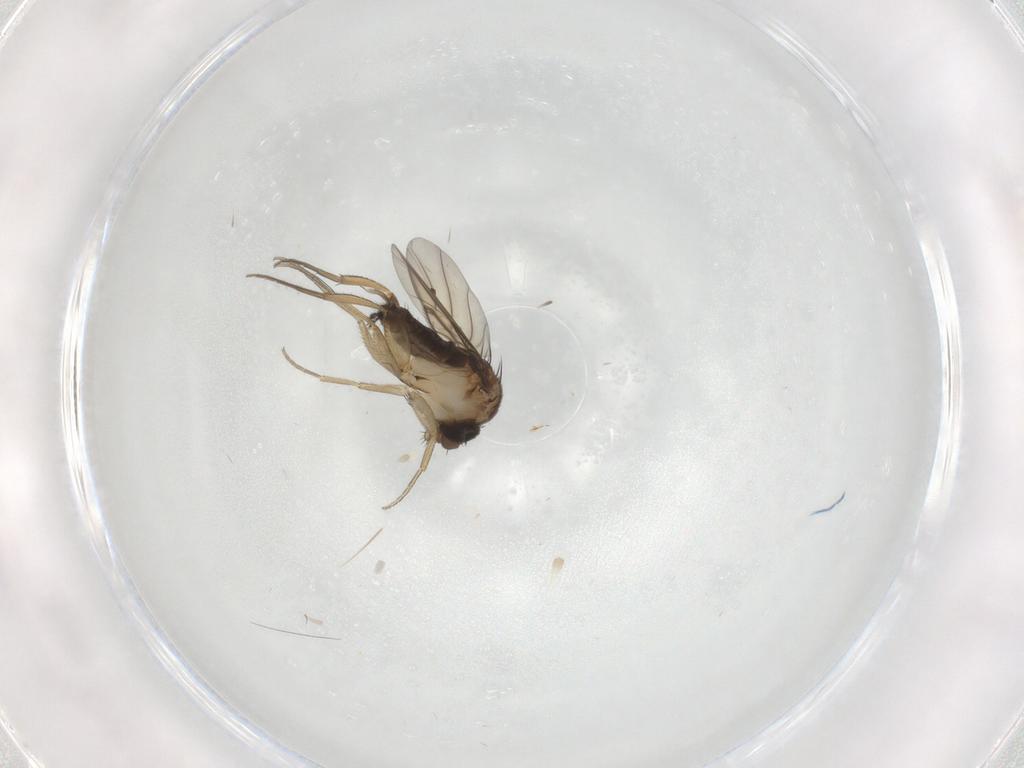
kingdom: Animalia
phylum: Arthropoda
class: Insecta
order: Diptera
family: Phoridae
